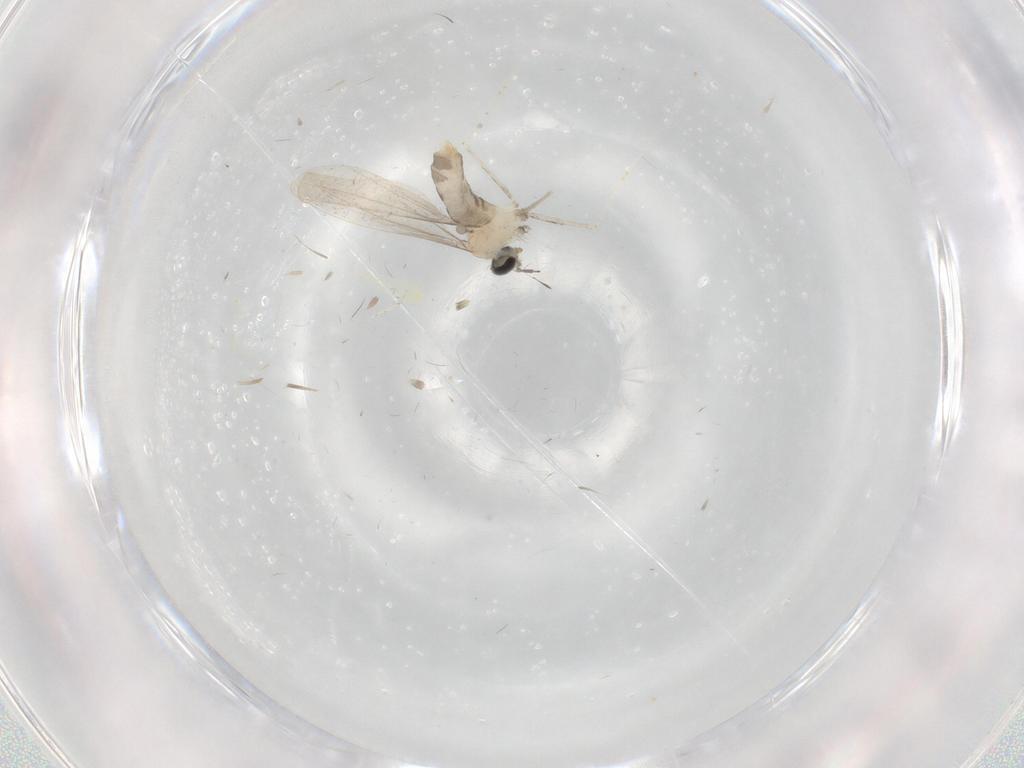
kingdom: Animalia
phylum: Arthropoda
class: Insecta
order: Diptera
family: Cecidomyiidae
